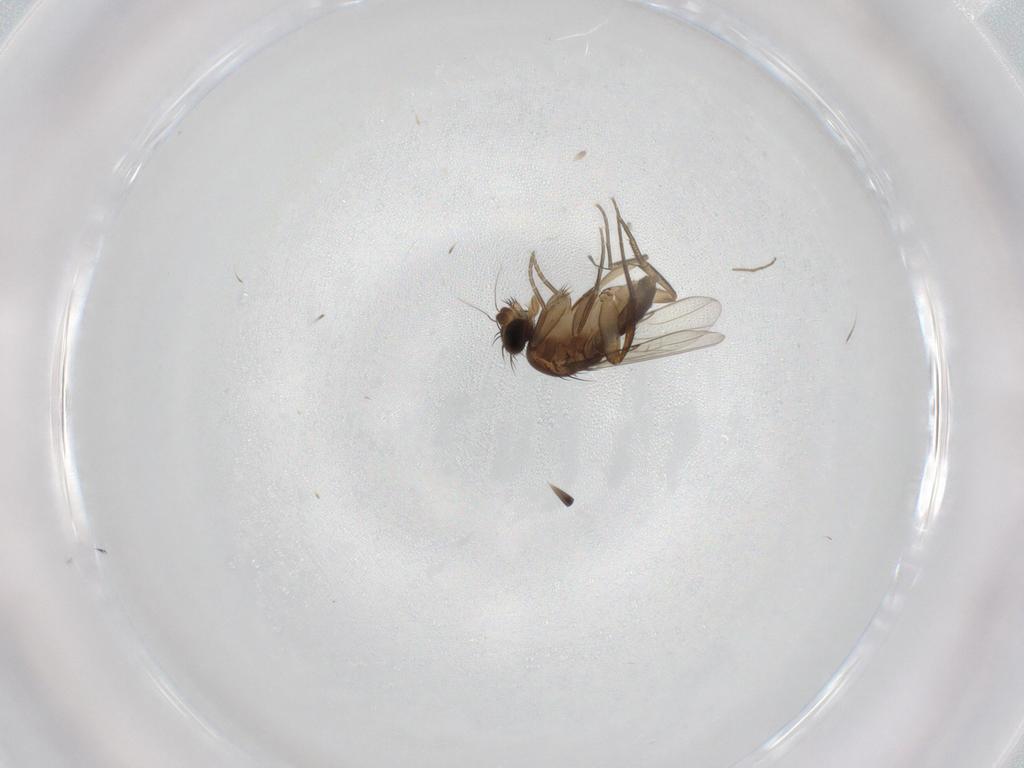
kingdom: Animalia
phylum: Arthropoda
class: Insecta
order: Diptera
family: Phoridae
